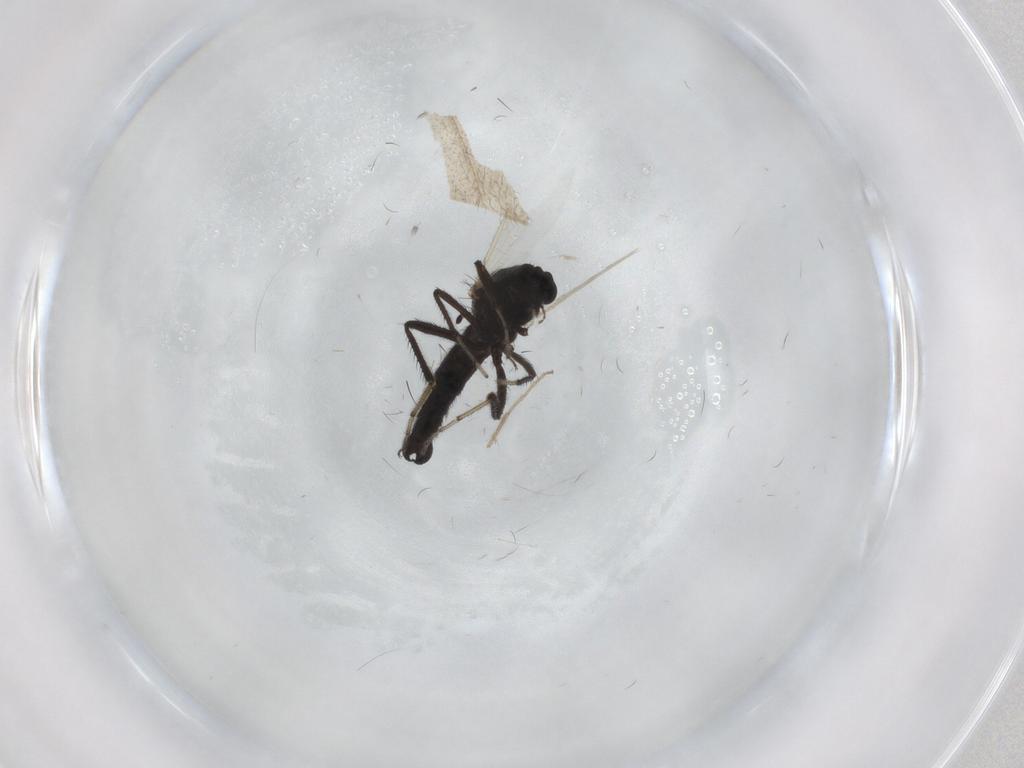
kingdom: Animalia
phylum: Arthropoda
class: Insecta
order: Diptera
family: Ceratopogonidae
